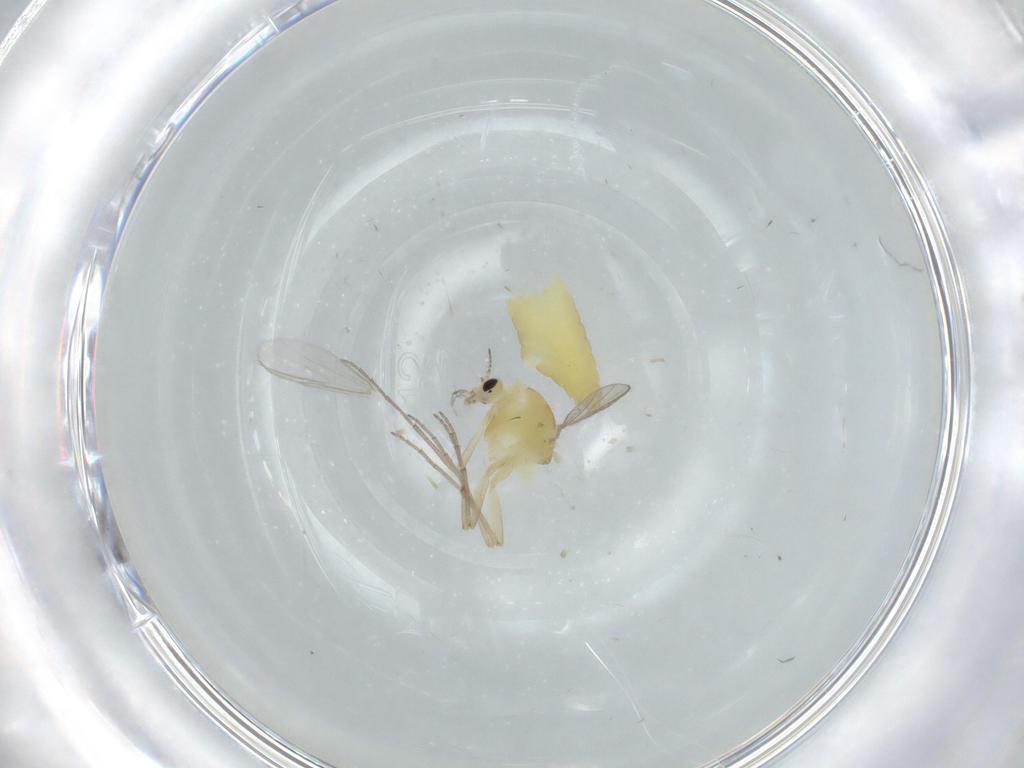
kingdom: Animalia
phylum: Arthropoda
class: Insecta
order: Diptera
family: Chironomidae
